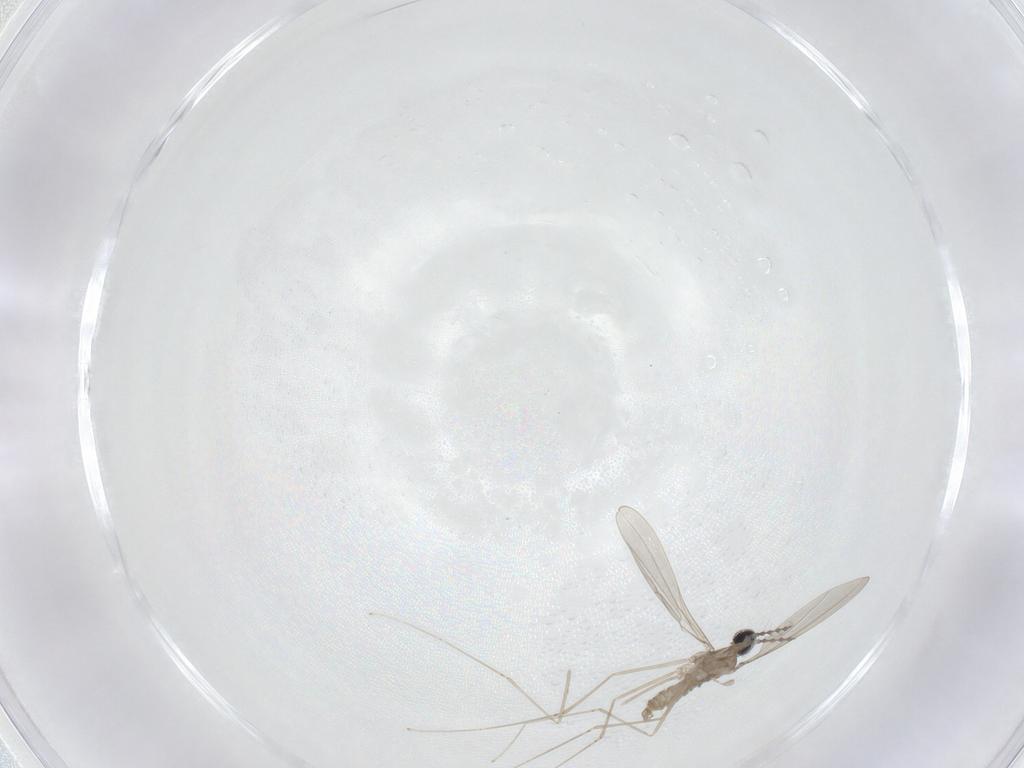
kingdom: Animalia
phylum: Arthropoda
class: Insecta
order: Diptera
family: Cecidomyiidae
